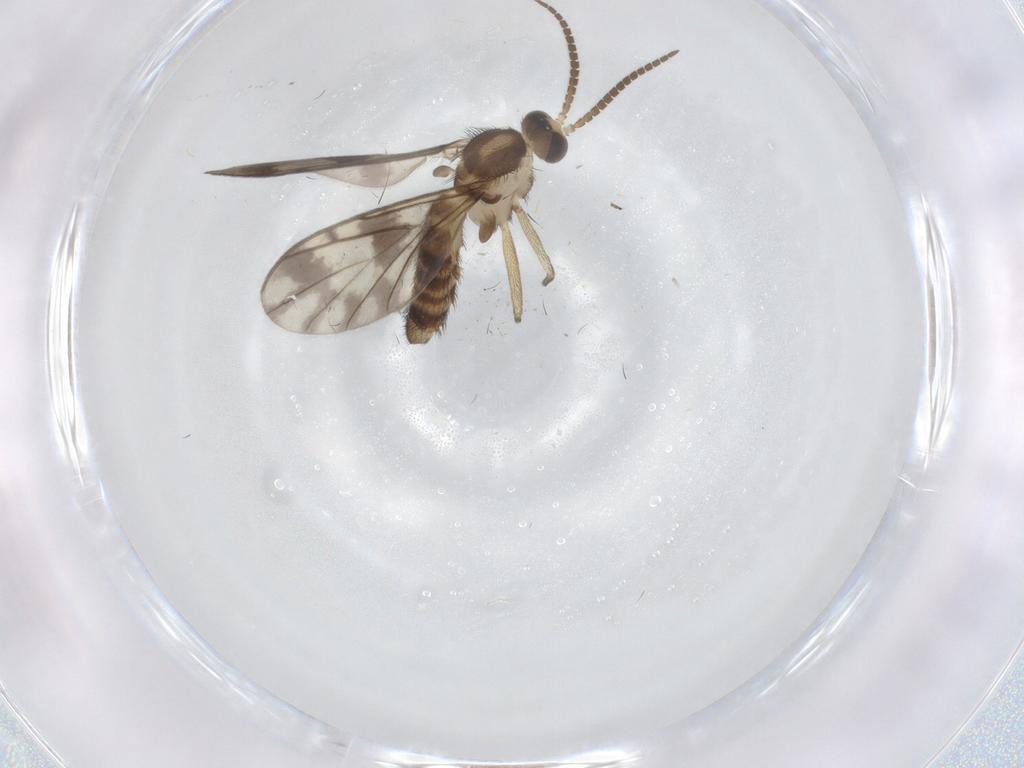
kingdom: Animalia
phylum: Arthropoda
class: Insecta
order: Diptera
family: Keroplatidae
